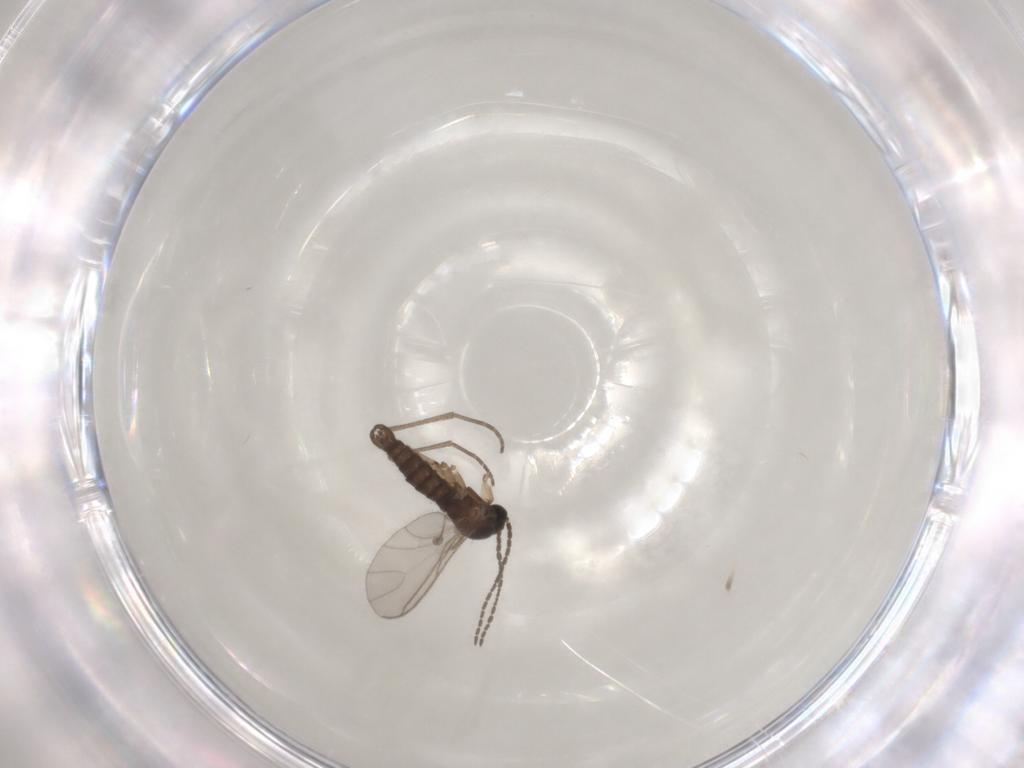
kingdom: Animalia
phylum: Arthropoda
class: Insecta
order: Diptera
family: Sciaridae
